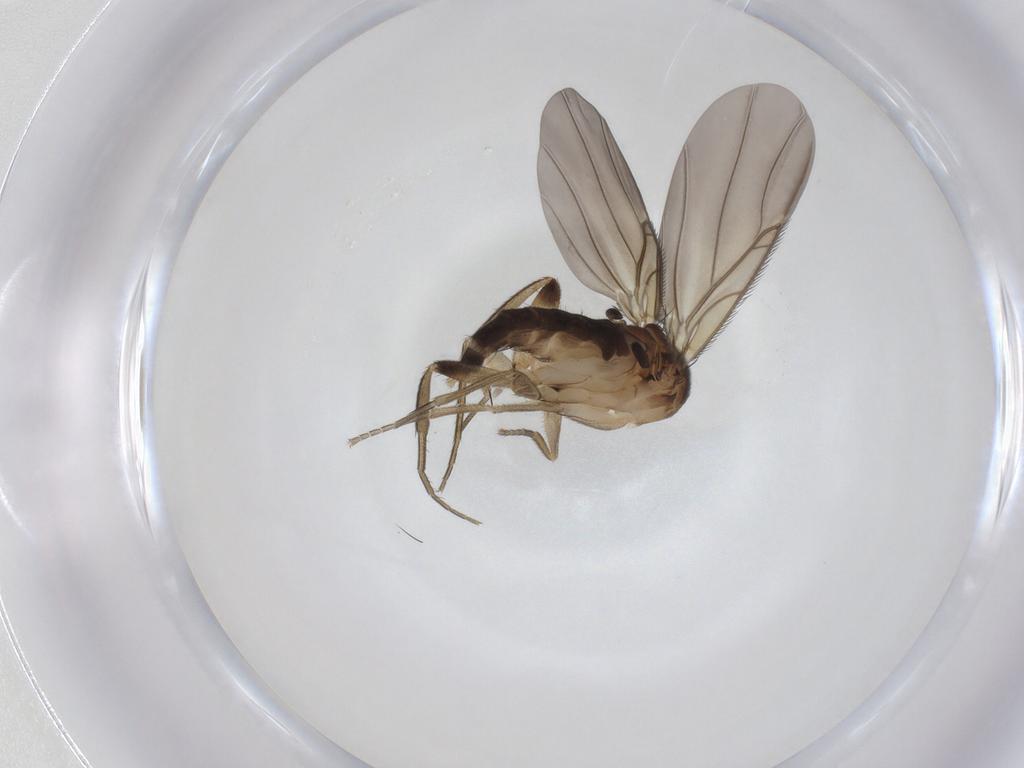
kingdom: Animalia
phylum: Arthropoda
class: Insecta
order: Diptera
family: Phoridae
